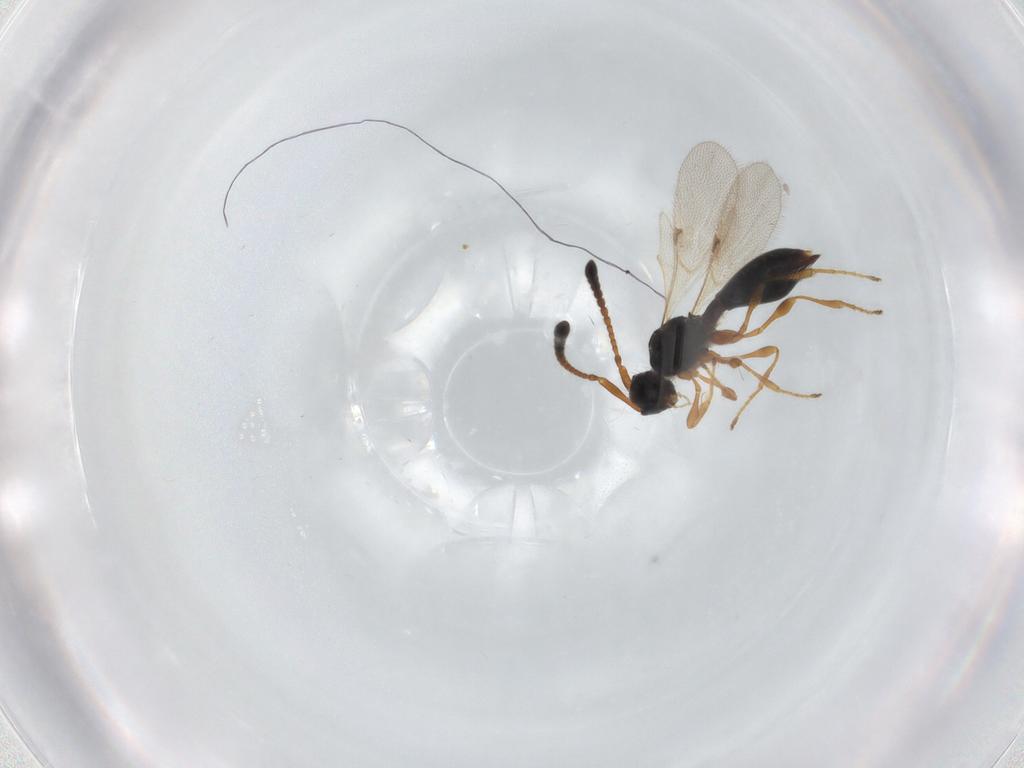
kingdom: Animalia
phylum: Arthropoda
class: Insecta
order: Hymenoptera
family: Diapriidae
